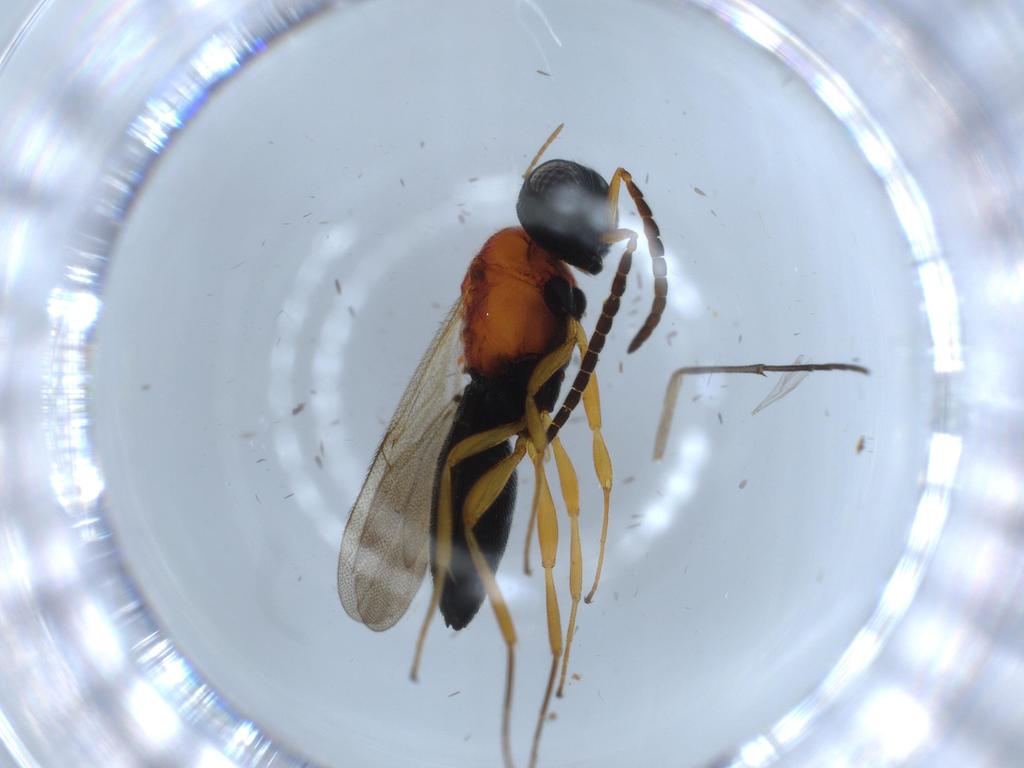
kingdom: Animalia
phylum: Arthropoda
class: Insecta
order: Hymenoptera
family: Scelionidae
